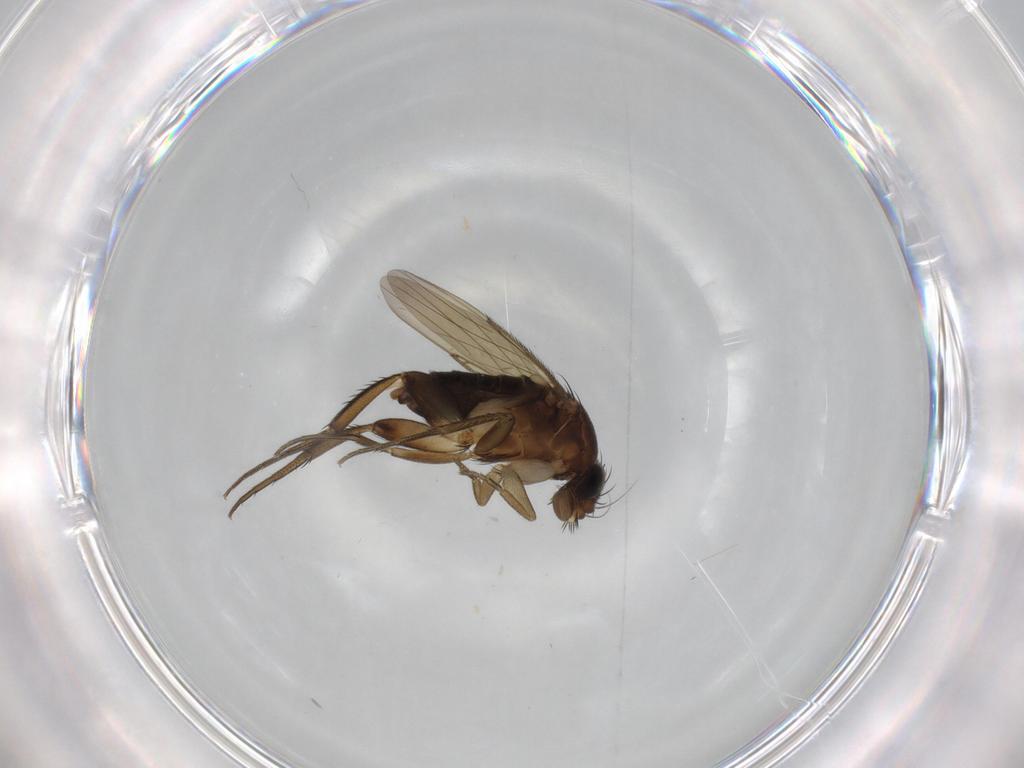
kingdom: Animalia
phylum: Arthropoda
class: Insecta
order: Diptera
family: Phoridae
